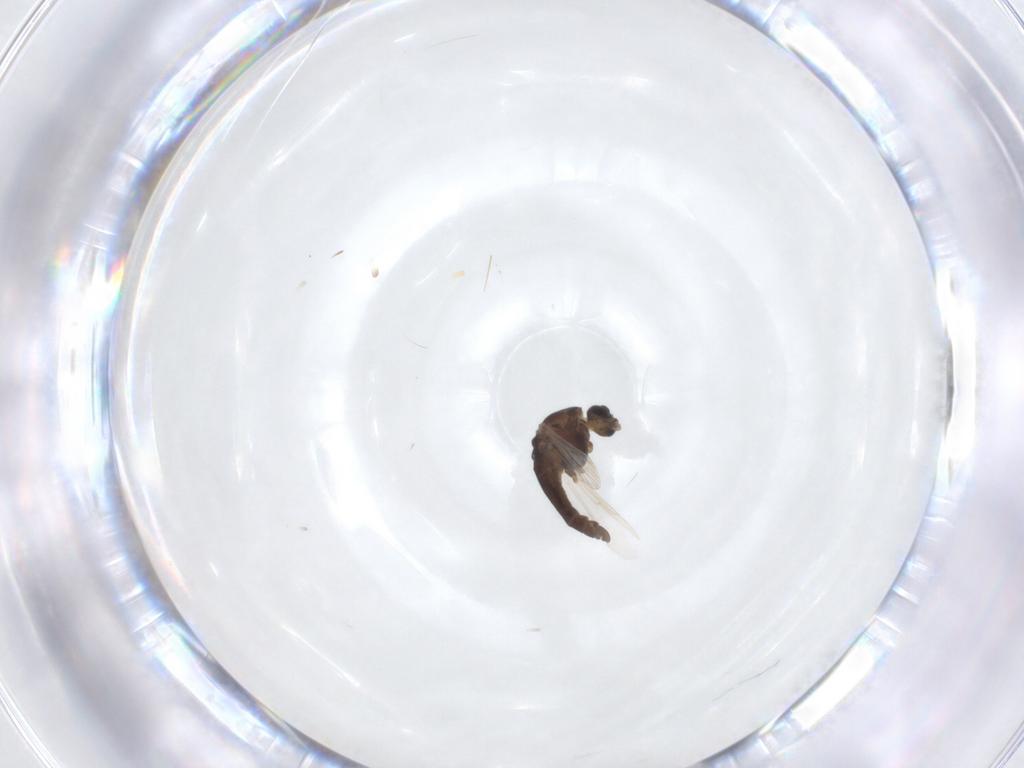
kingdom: Animalia
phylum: Arthropoda
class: Insecta
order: Diptera
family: Chironomidae
